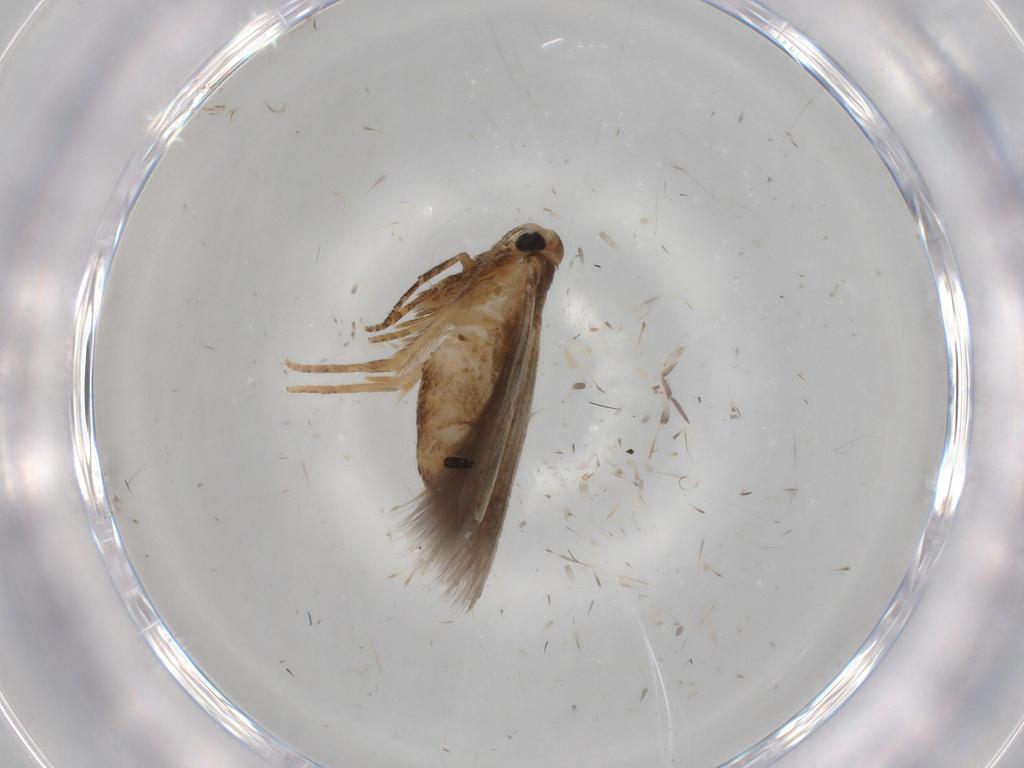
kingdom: Animalia
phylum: Arthropoda
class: Insecta
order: Lepidoptera
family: Cosmopterigidae
